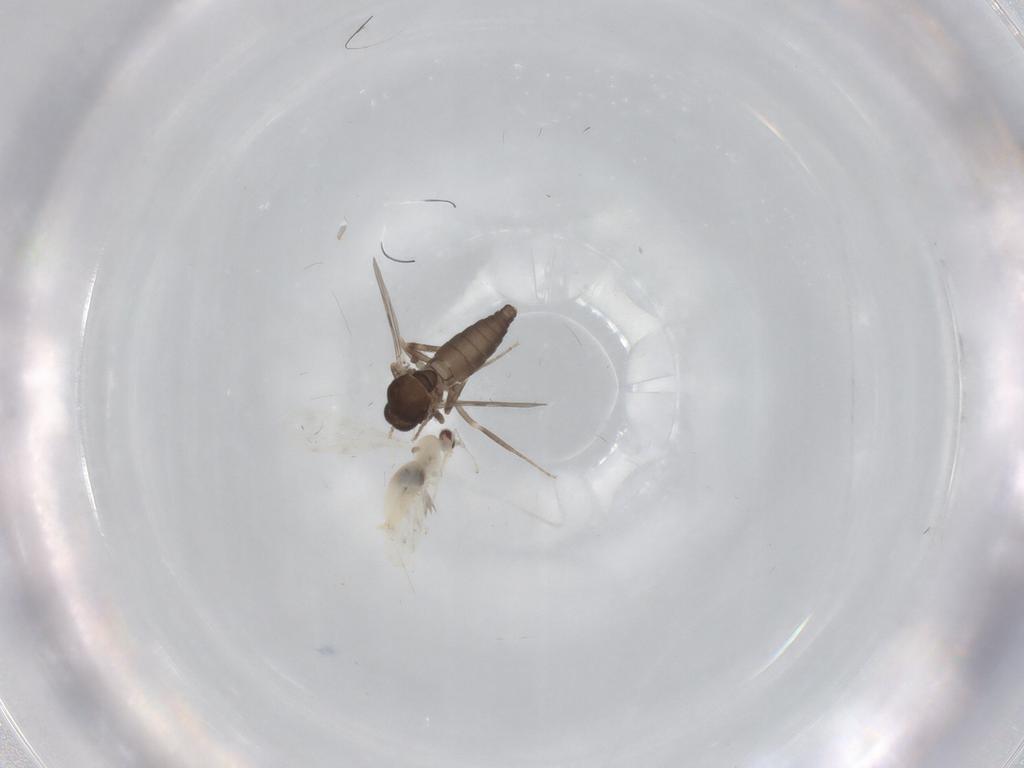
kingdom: Animalia
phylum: Arthropoda
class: Insecta
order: Diptera
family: Ceratopogonidae
